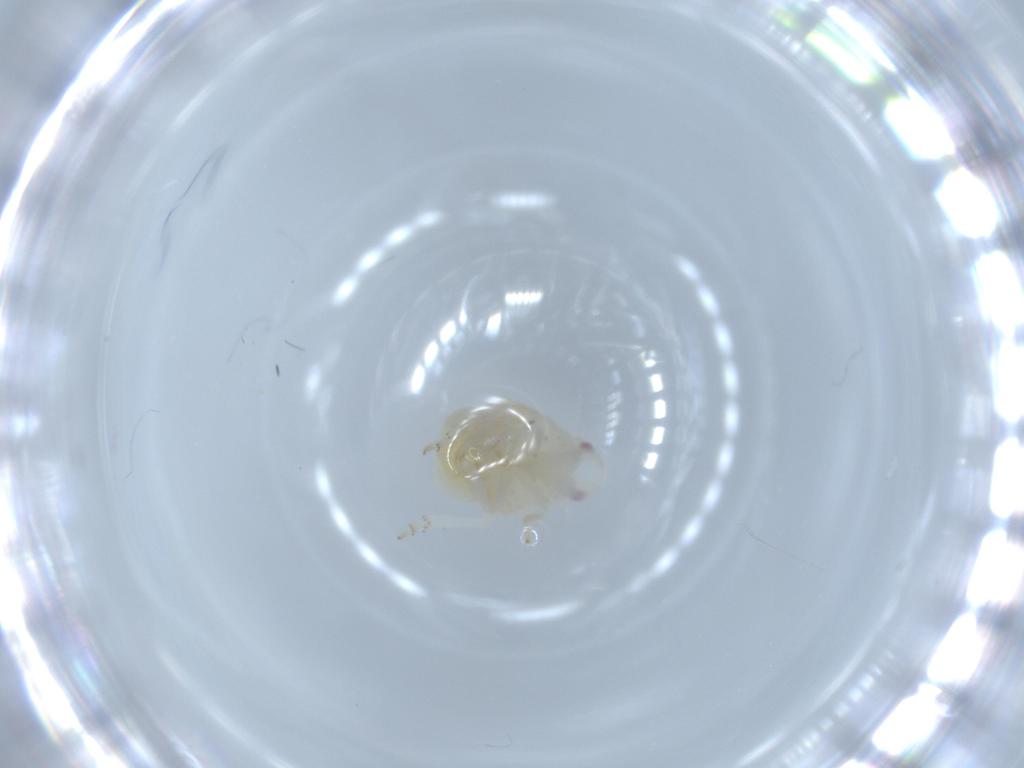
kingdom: Animalia
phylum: Arthropoda
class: Insecta
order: Hemiptera
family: Flatidae
